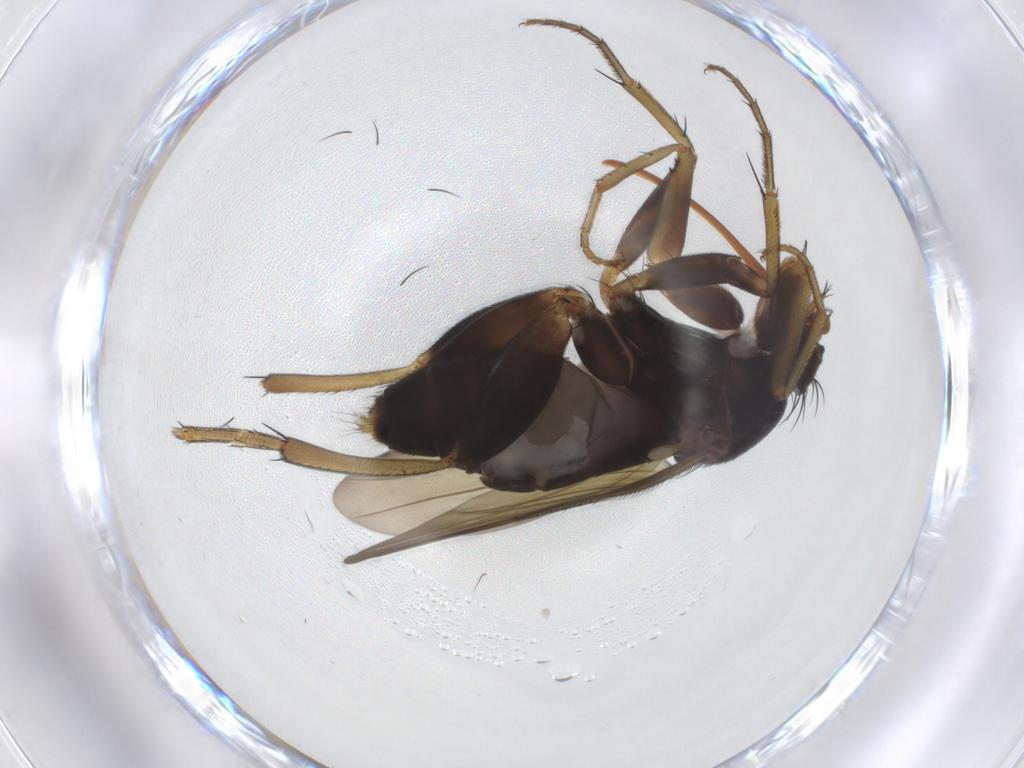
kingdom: Animalia
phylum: Arthropoda
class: Insecta
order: Diptera
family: Phoridae
